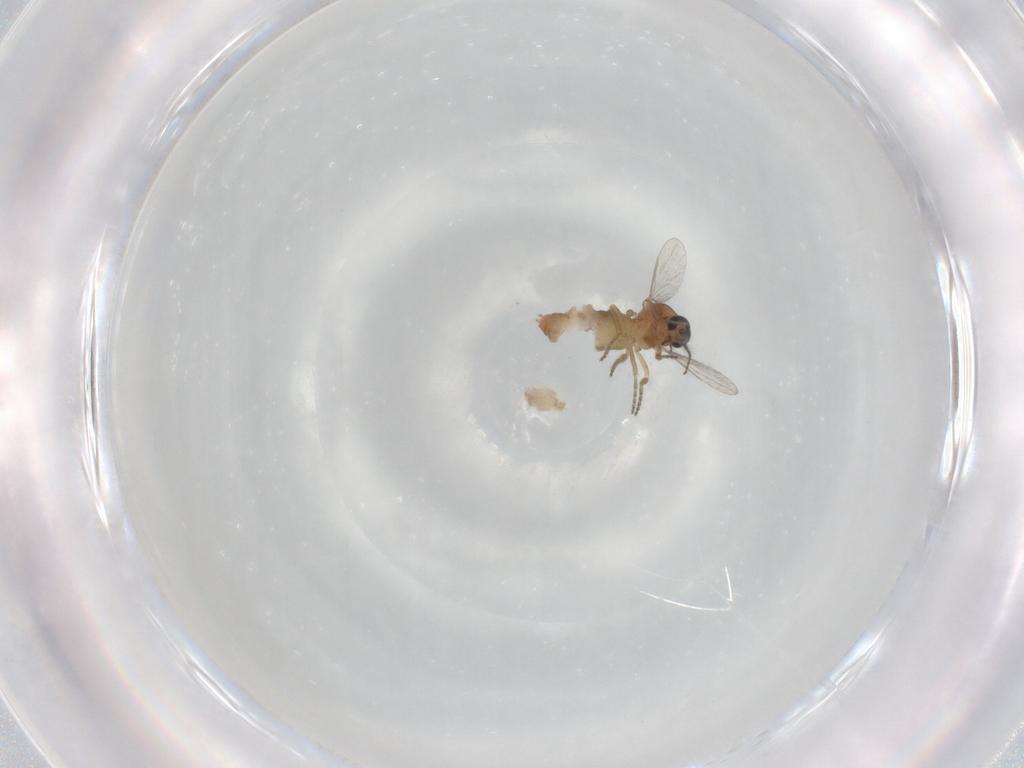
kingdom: Animalia
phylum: Arthropoda
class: Insecta
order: Diptera
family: Ceratopogonidae
